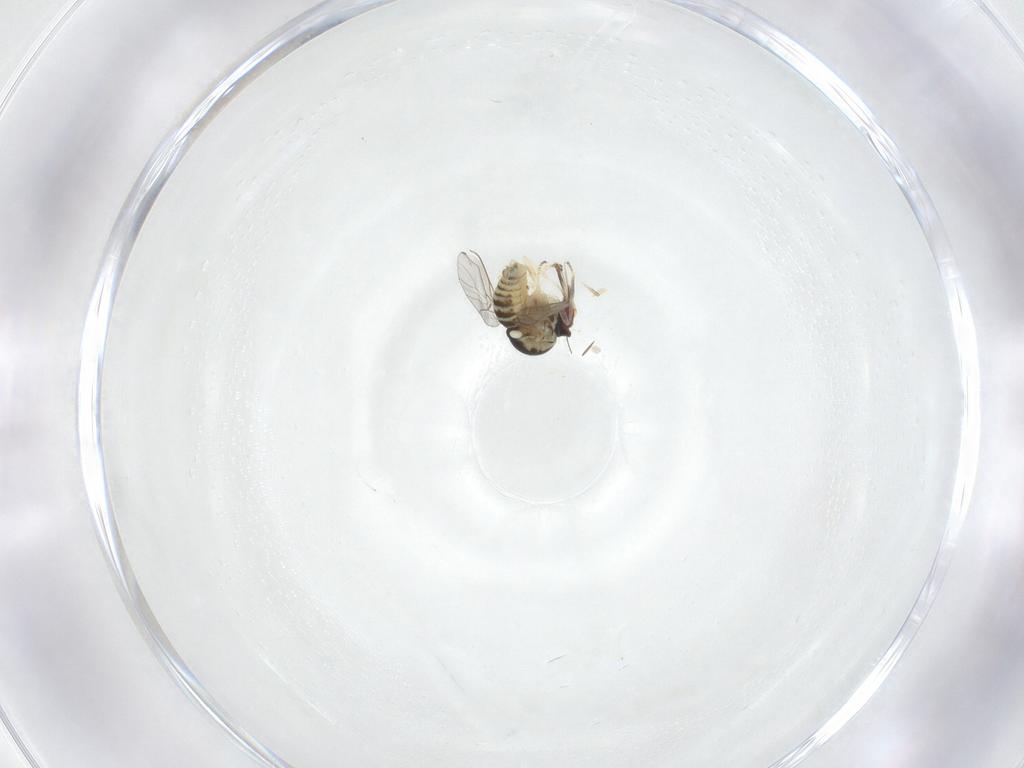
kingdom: Animalia
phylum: Arthropoda
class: Insecta
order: Diptera
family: Sarcophagidae
